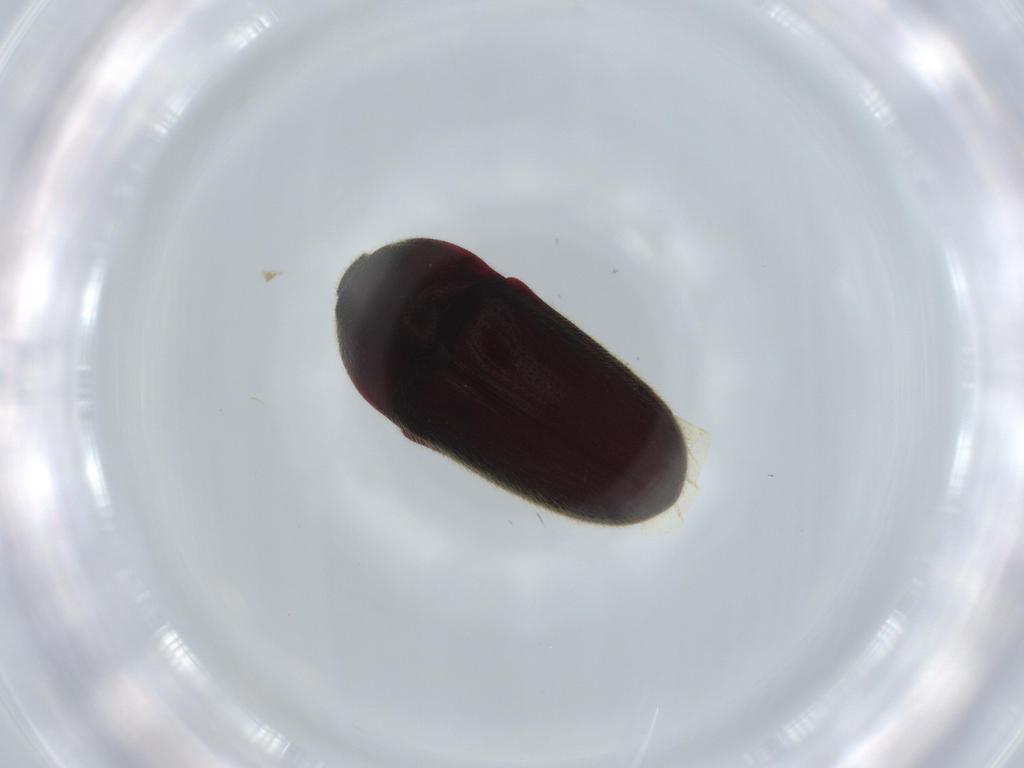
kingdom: Animalia
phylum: Arthropoda
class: Insecta
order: Coleoptera
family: Throscidae
